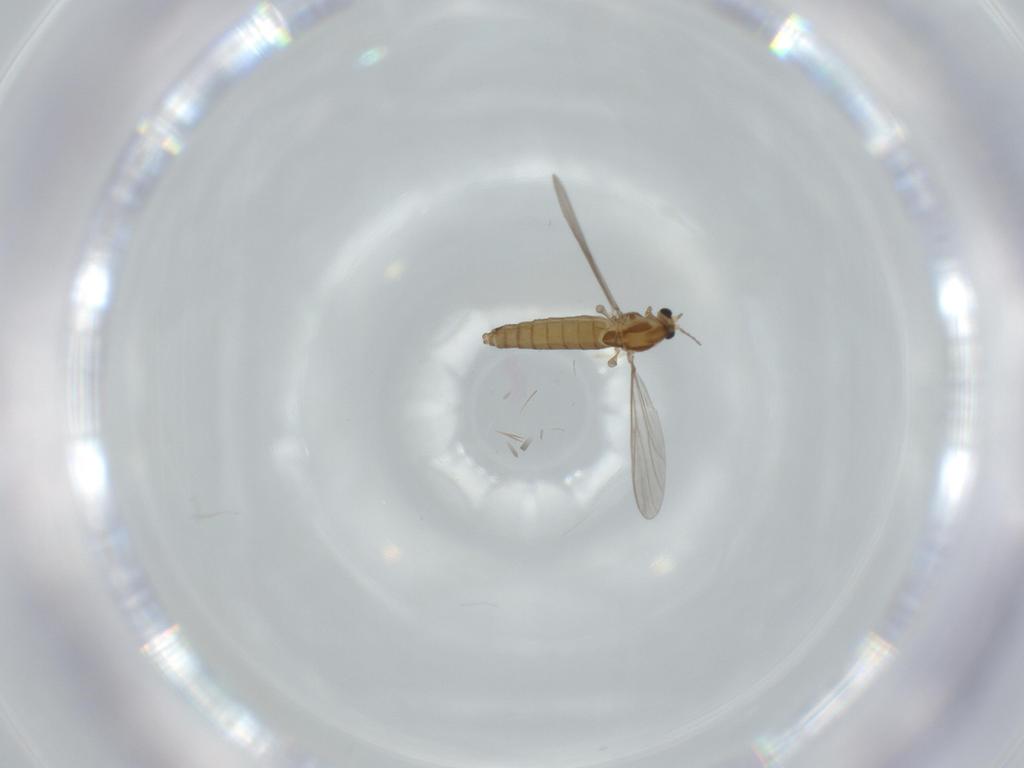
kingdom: Animalia
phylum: Arthropoda
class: Insecta
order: Diptera
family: Chironomidae
